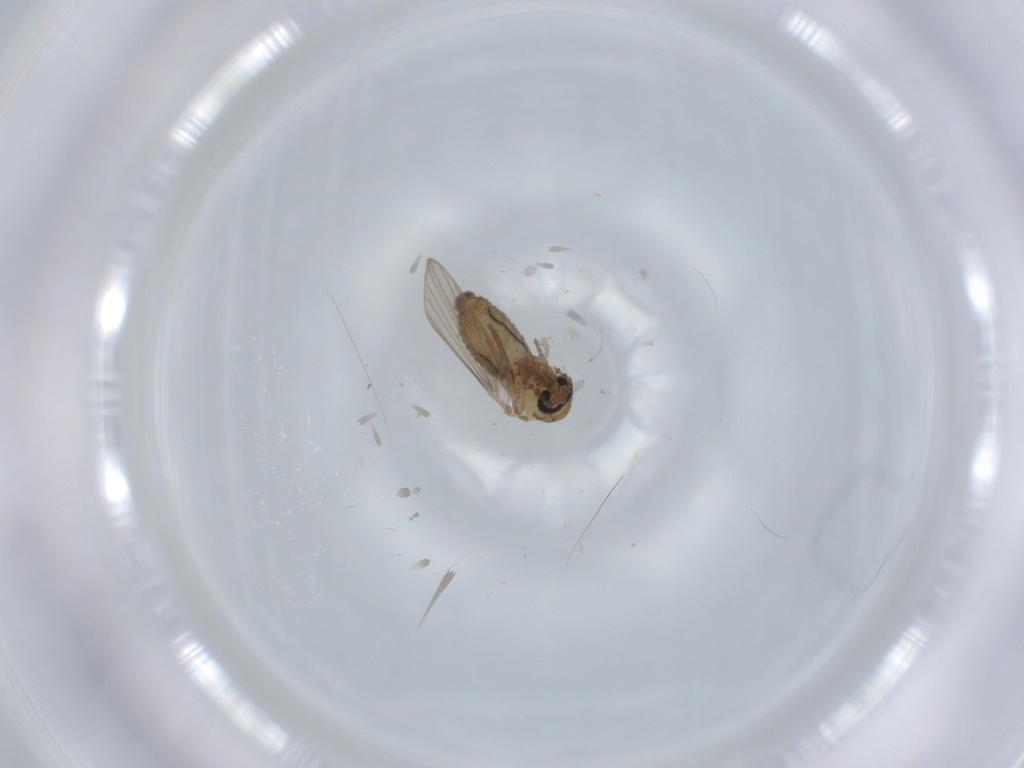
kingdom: Animalia
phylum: Arthropoda
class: Insecta
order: Diptera
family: Psychodidae
